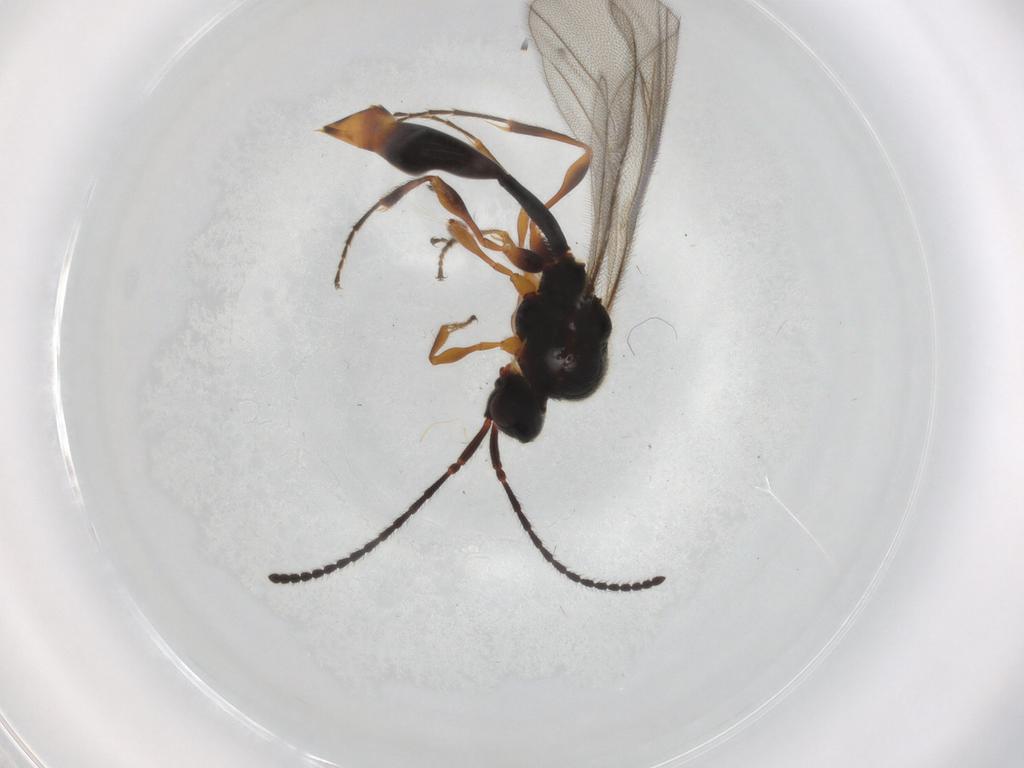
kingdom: Animalia
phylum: Arthropoda
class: Insecta
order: Hymenoptera
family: Diapriidae
